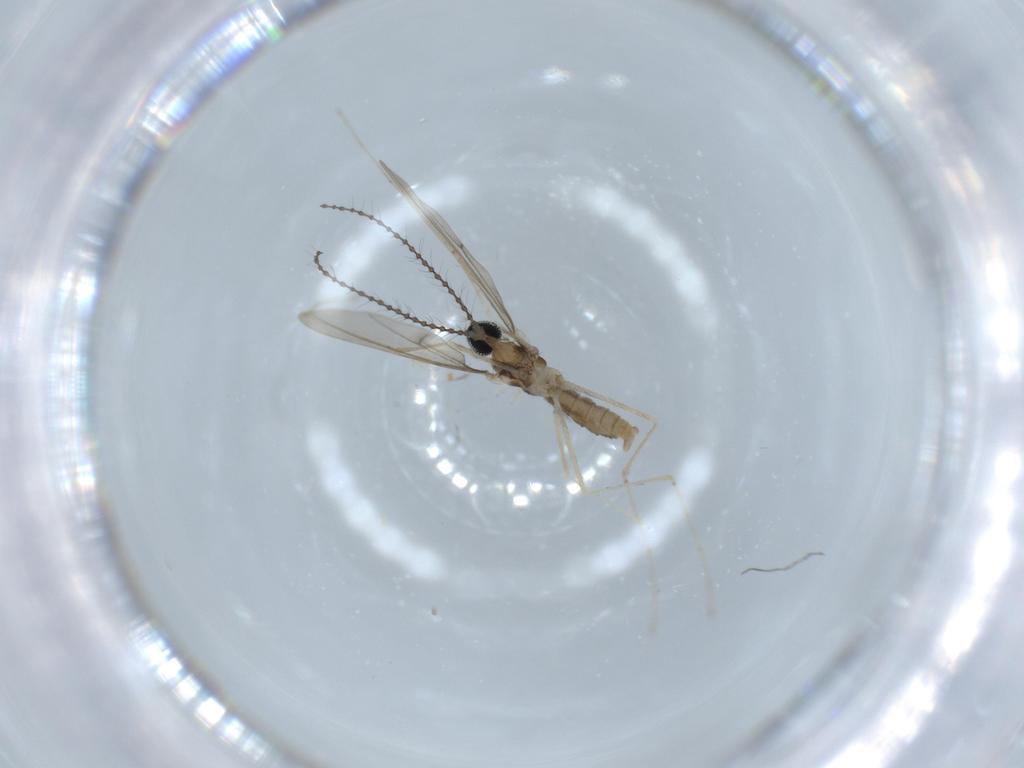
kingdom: Animalia
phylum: Arthropoda
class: Insecta
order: Diptera
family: Cecidomyiidae
